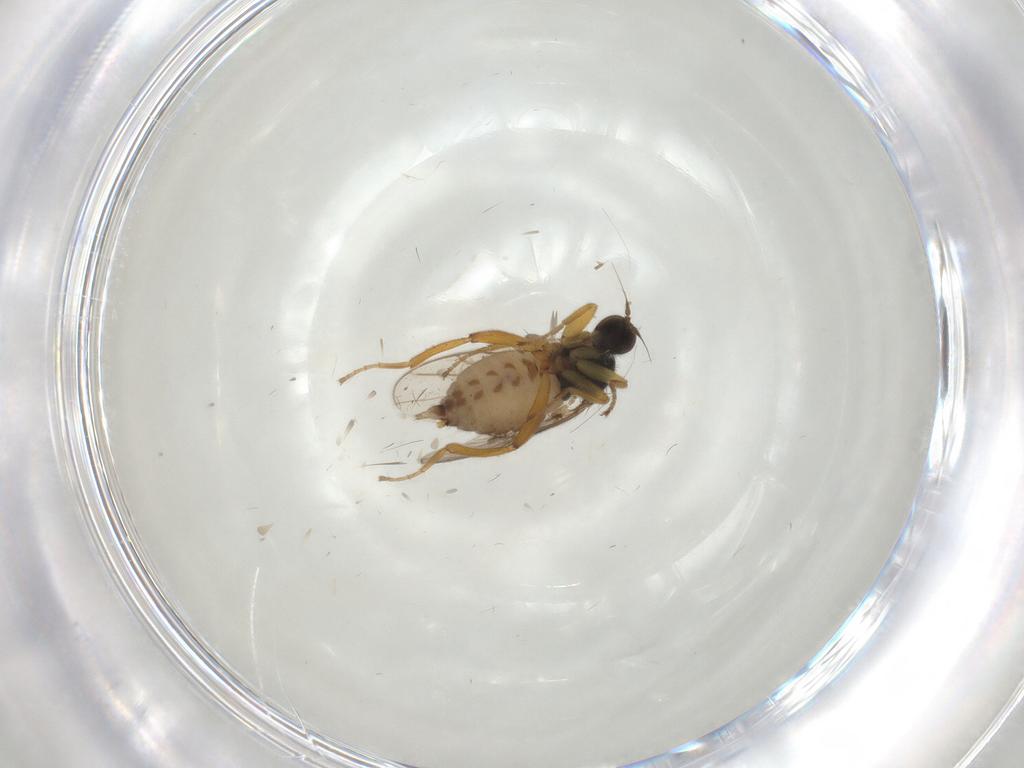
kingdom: Animalia
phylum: Arthropoda
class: Insecta
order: Diptera
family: Hybotidae
